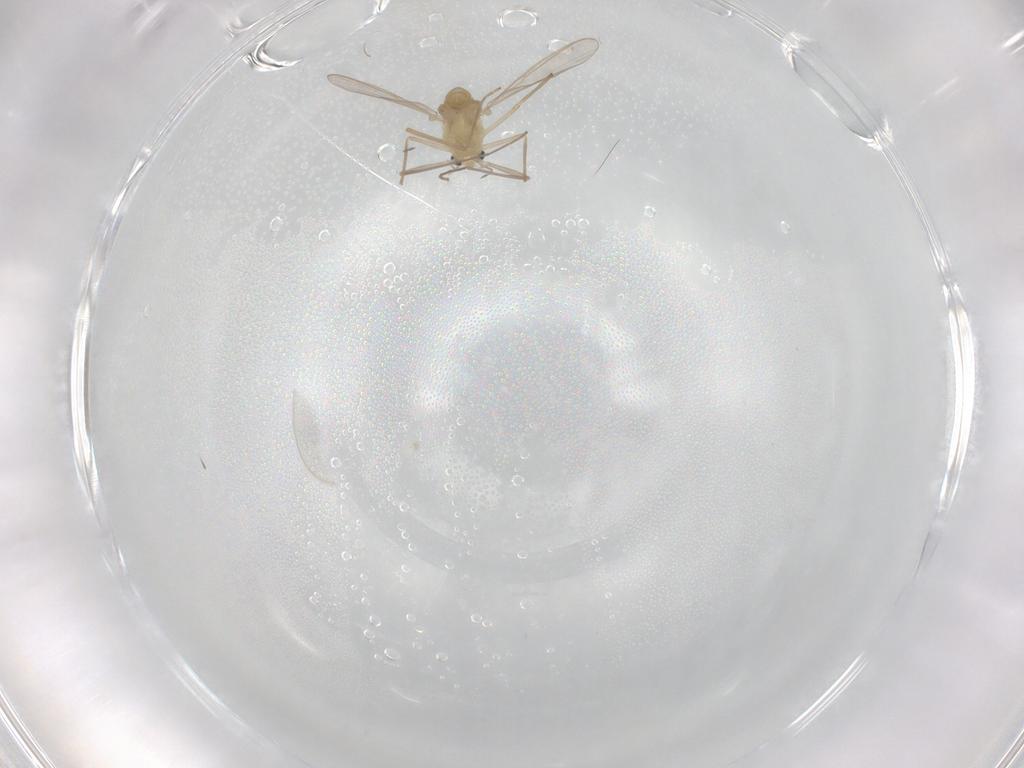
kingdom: Animalia
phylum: Arthropoda
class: Insecta
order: Diptera
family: Chironomidae
